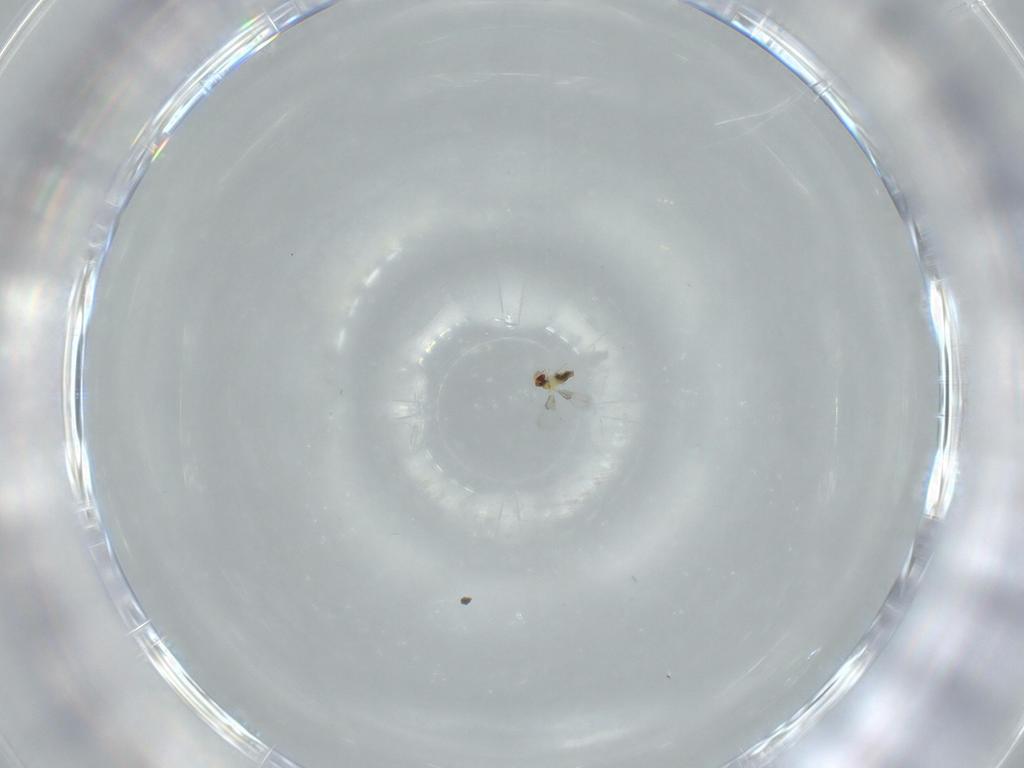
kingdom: Animalia
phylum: Arthropoda
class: Insecta
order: Hymenoptera
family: Trichogrammatidae
